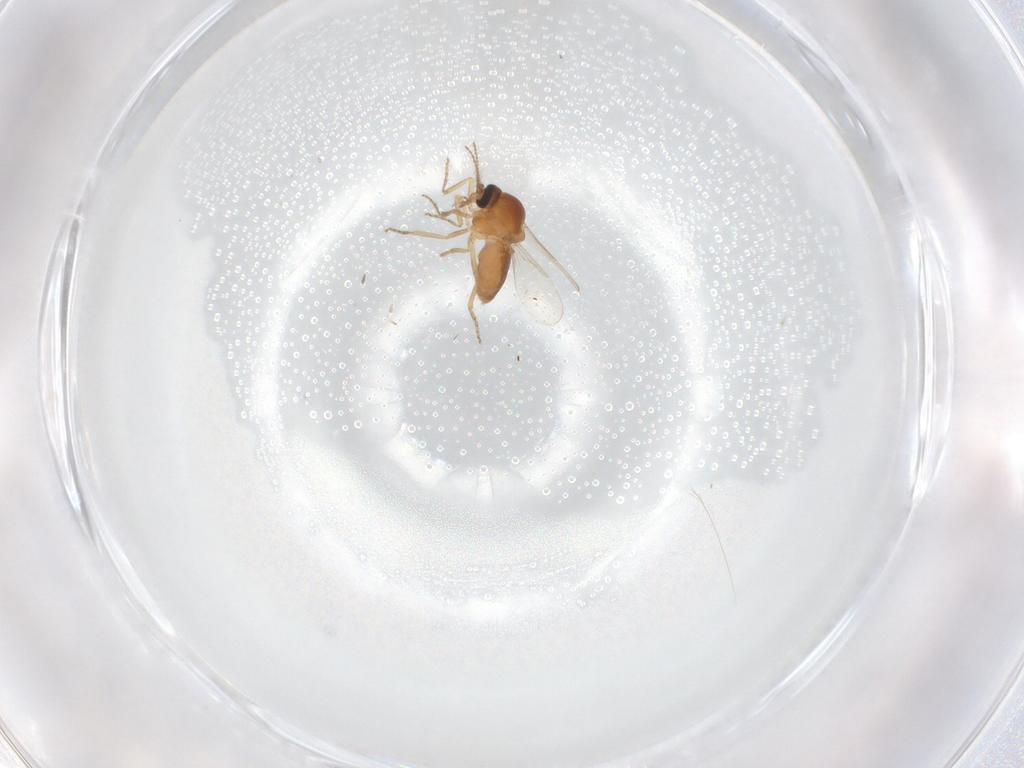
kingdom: Animalia
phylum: Arthropoda
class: Insecta
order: Diptera
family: Ceratopogonidae
